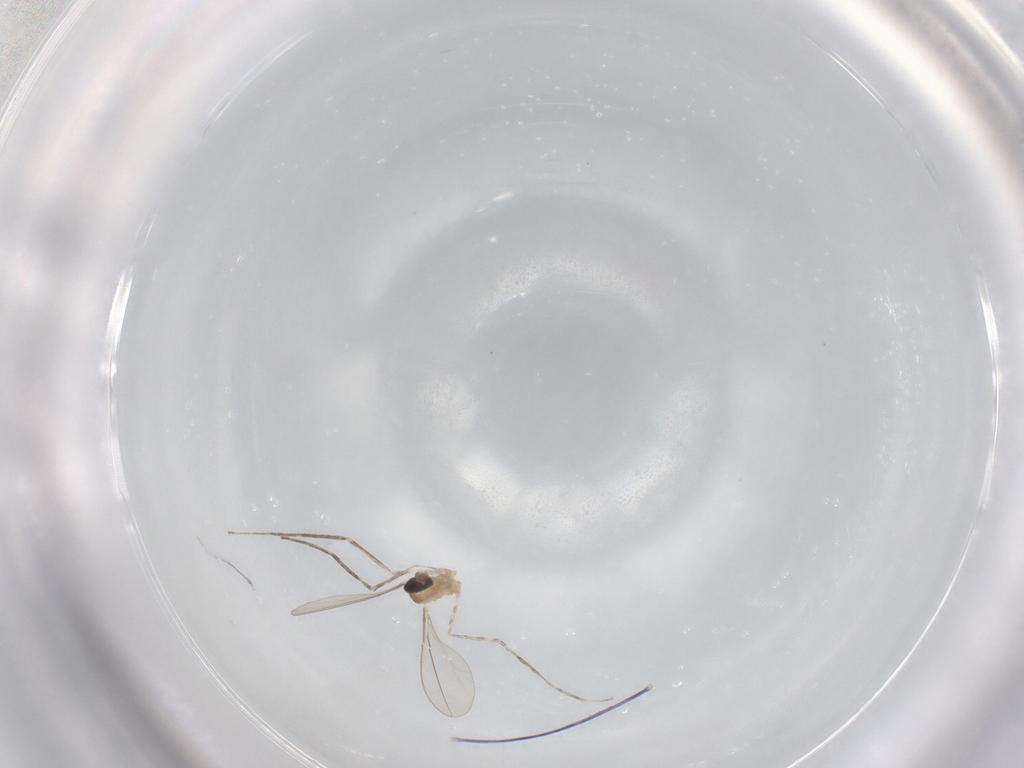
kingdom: Animalia
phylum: Arthropoda
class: Insecta
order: Diptera
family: Cecidomyiidae
